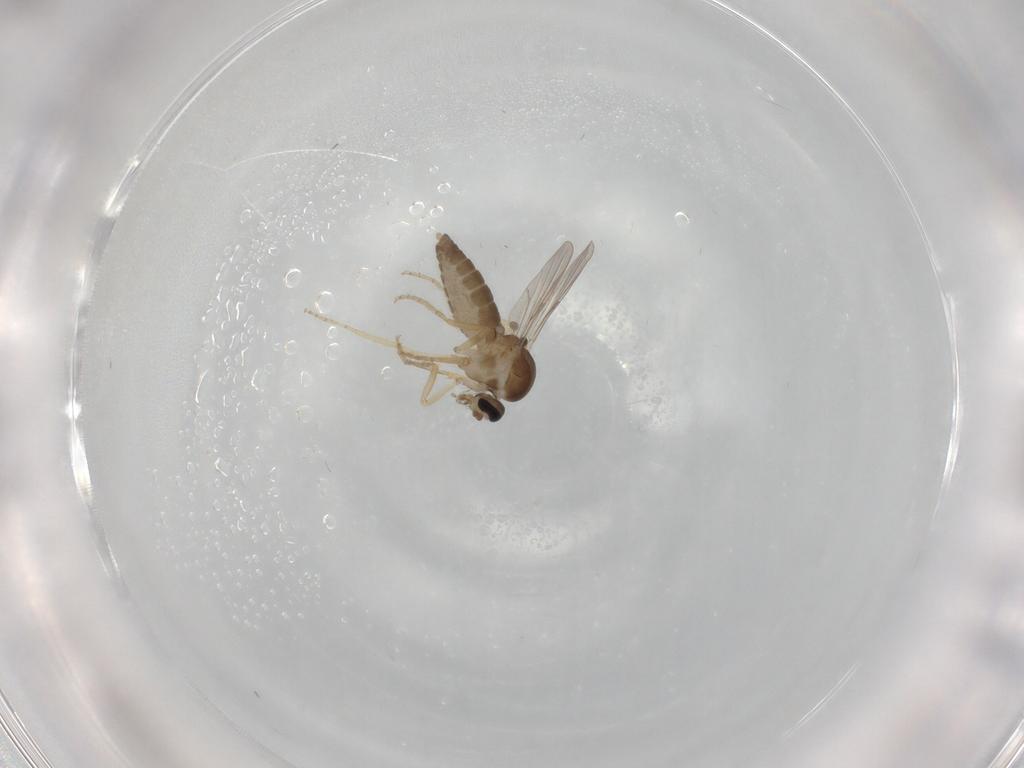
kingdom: Animalia
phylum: Arthropoda
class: Insecta
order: Diptera
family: Ceratopogonidae
